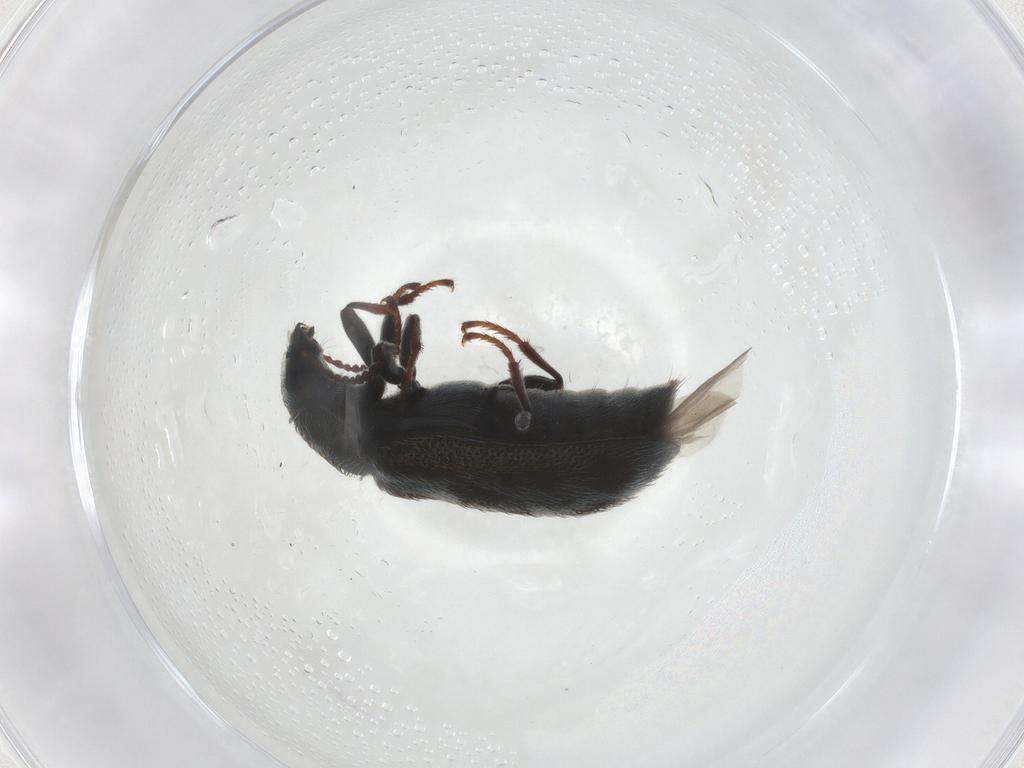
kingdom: Animalia
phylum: Arthropoda
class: Insecta
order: Coleoptera
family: Melyridae
